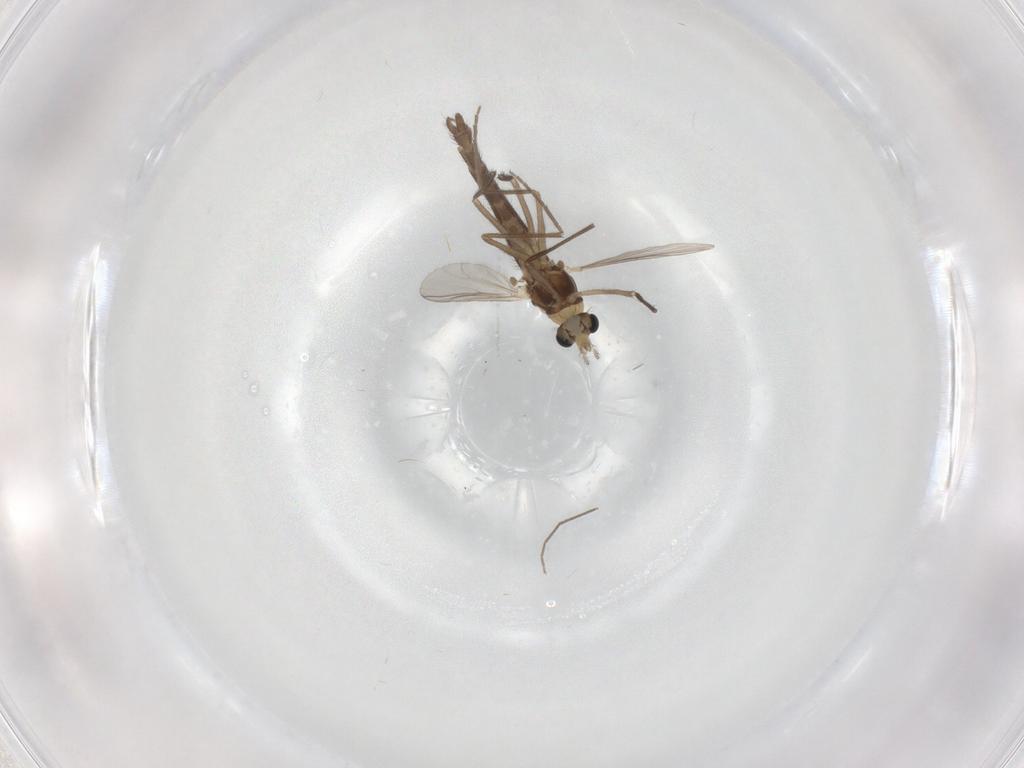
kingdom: Animalia
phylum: Arthropoda
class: Insecta
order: Diptera
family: Chironomidae
